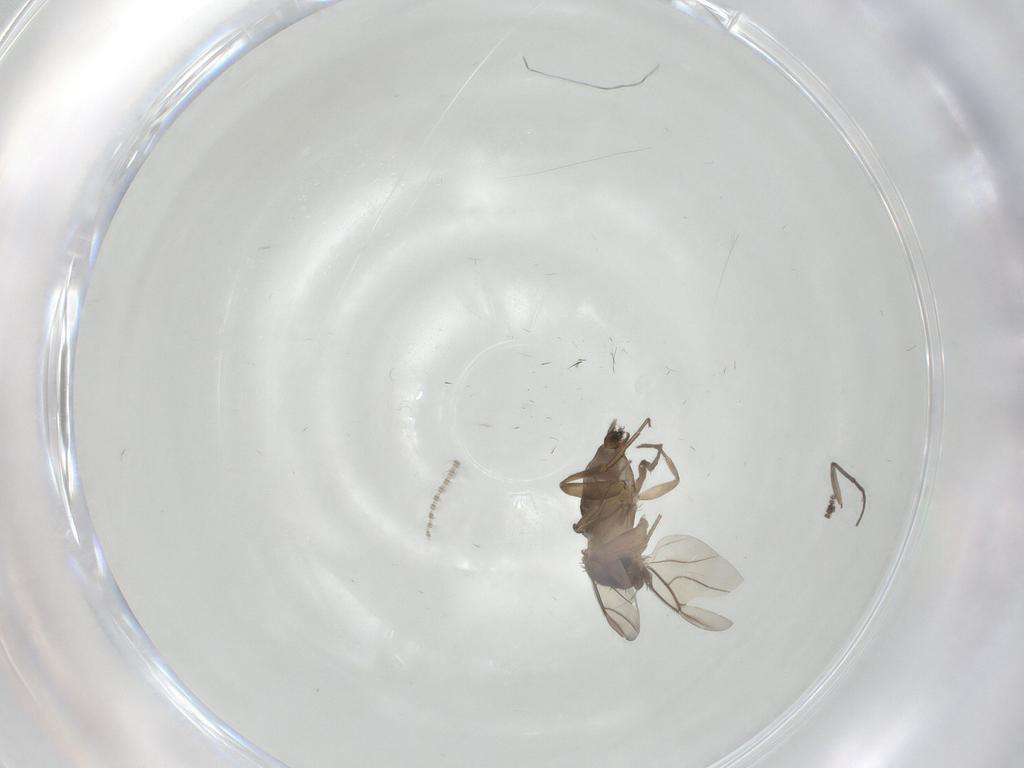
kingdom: Animalia
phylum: Arthropoda
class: Insecta
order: Diptera
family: Phoridae
